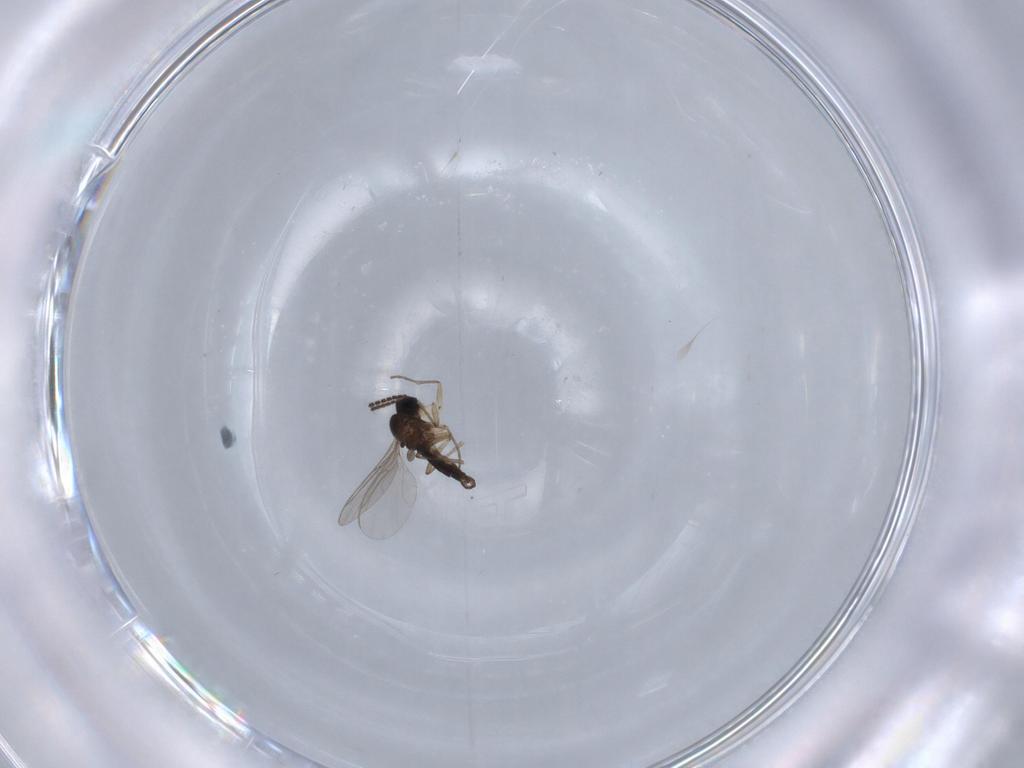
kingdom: Animalia
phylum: Arthropoda
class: Insecta
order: Diptera
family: Sciaridae
